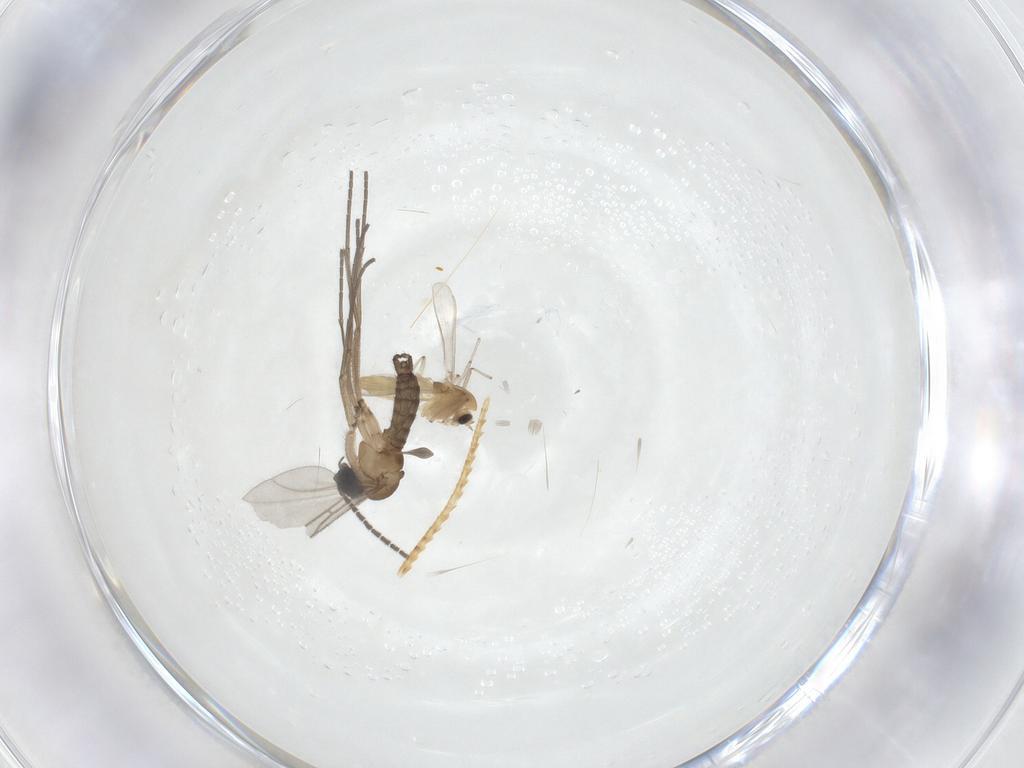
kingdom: Animalia
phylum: Arthropoda
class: Insecta
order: Diptera
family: Sciaridae
